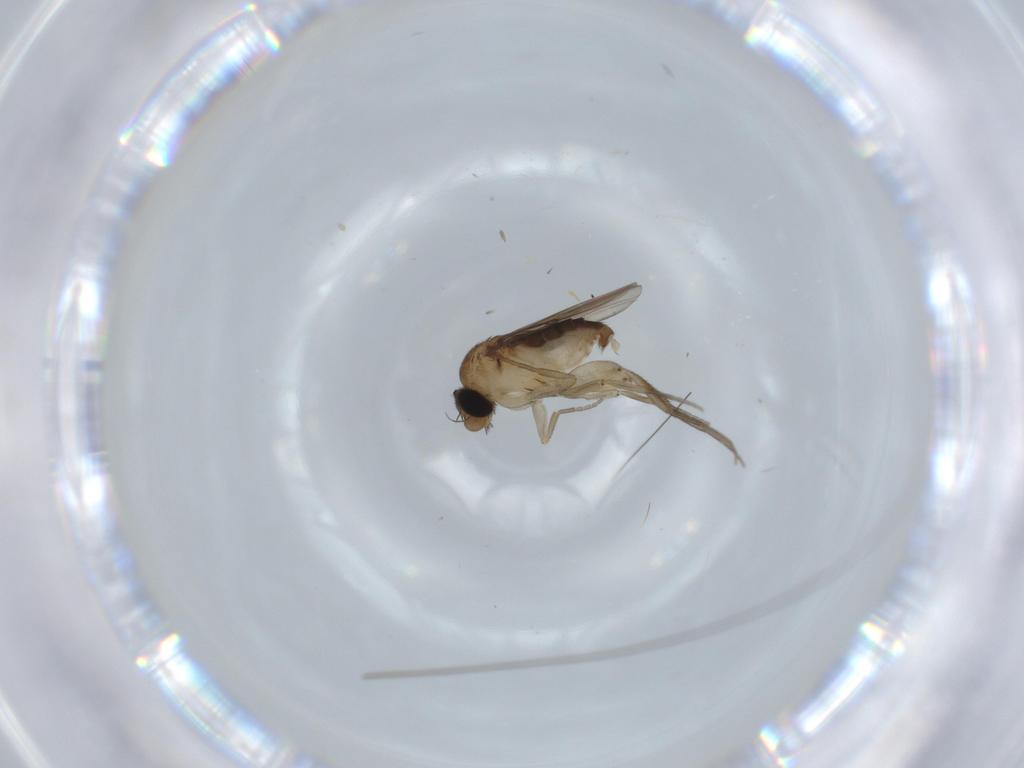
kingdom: Animalia
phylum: Arthropoda
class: Insecta
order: Diptera
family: Phoridae
